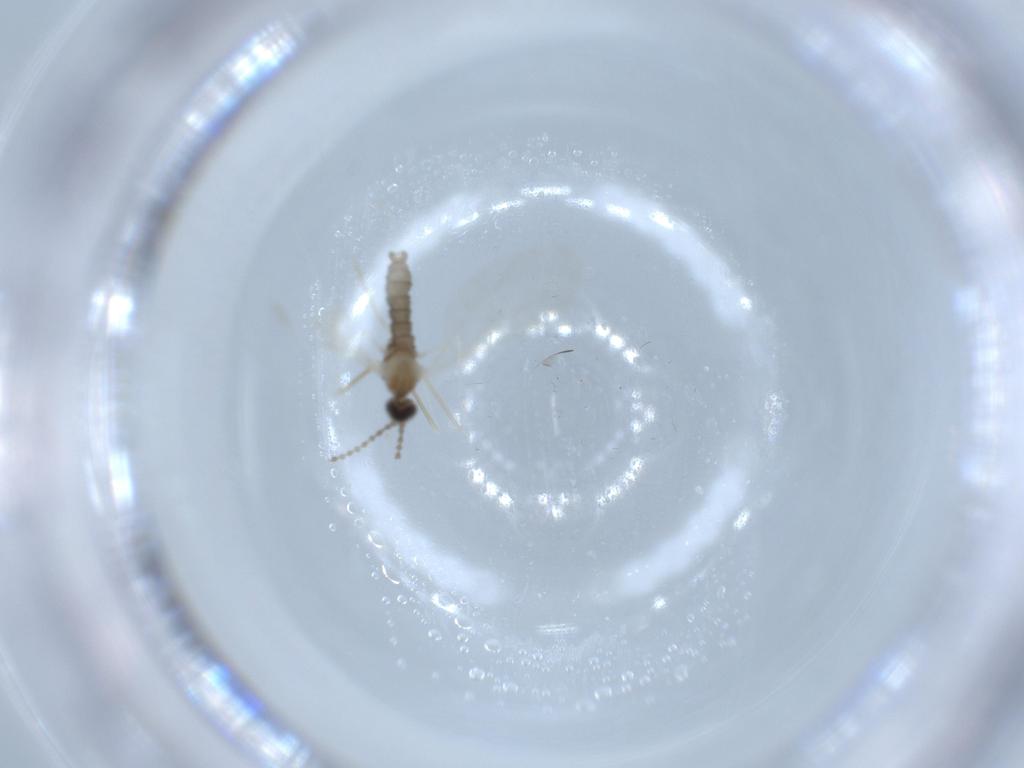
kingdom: Animalia
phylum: Arthropoda
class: Insecta
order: Diptera
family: Cecidomyiidae
